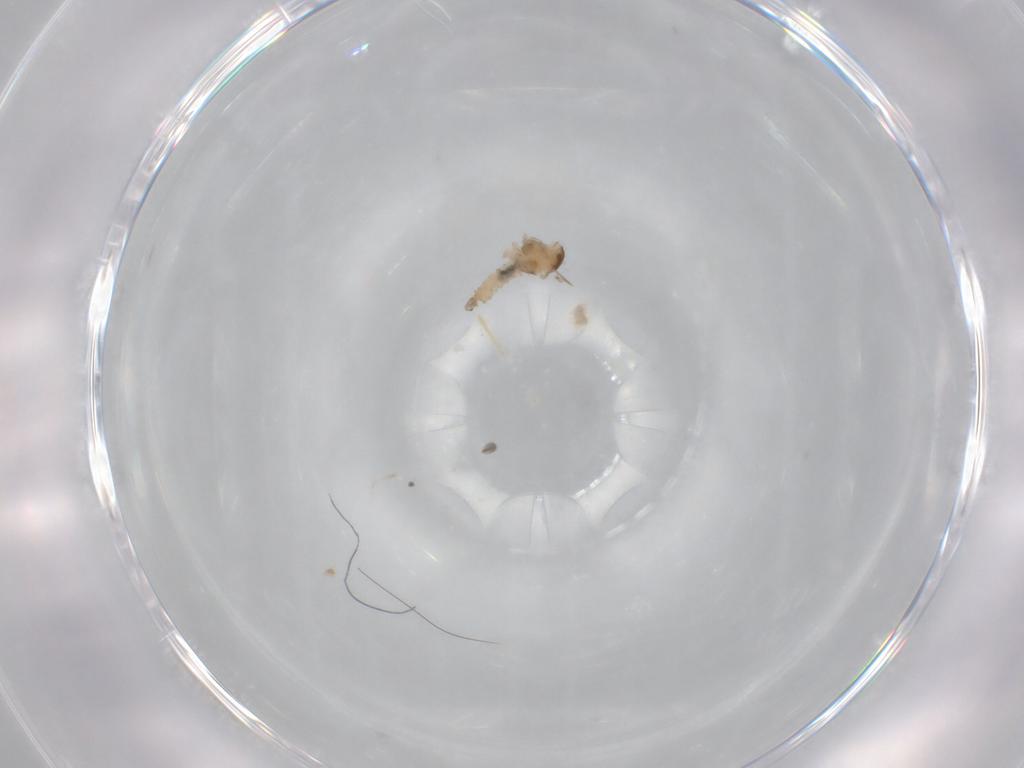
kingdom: Animalia
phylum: Arthropoda
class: Insecta
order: Diptera
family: Cecidomyiidae
